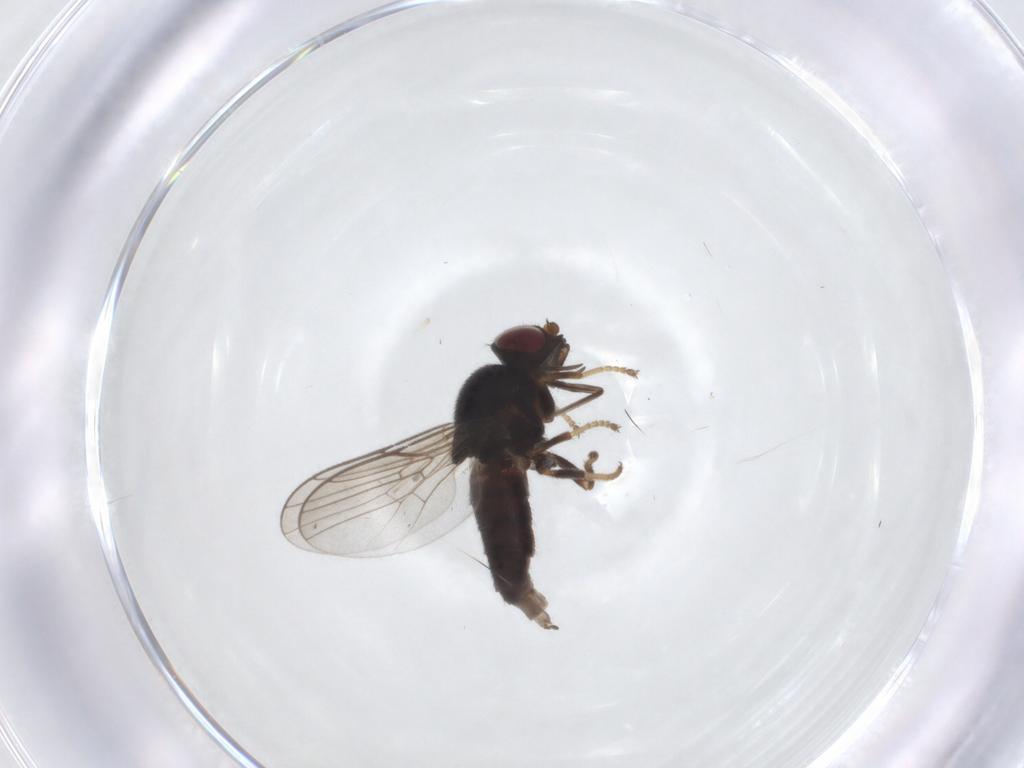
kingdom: Animalia
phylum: Arthropoda
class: Insecta
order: Diptera
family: Chloropidae
